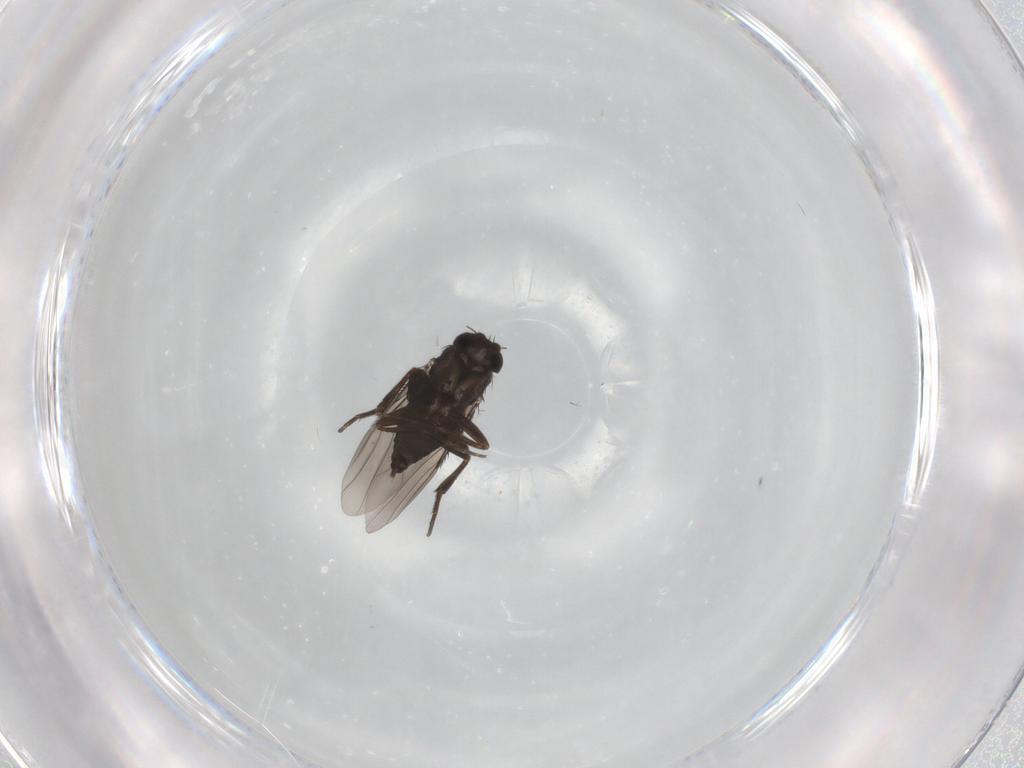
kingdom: Animalia
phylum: Arthropoda
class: Insecta
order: Diptera
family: Phoridae
